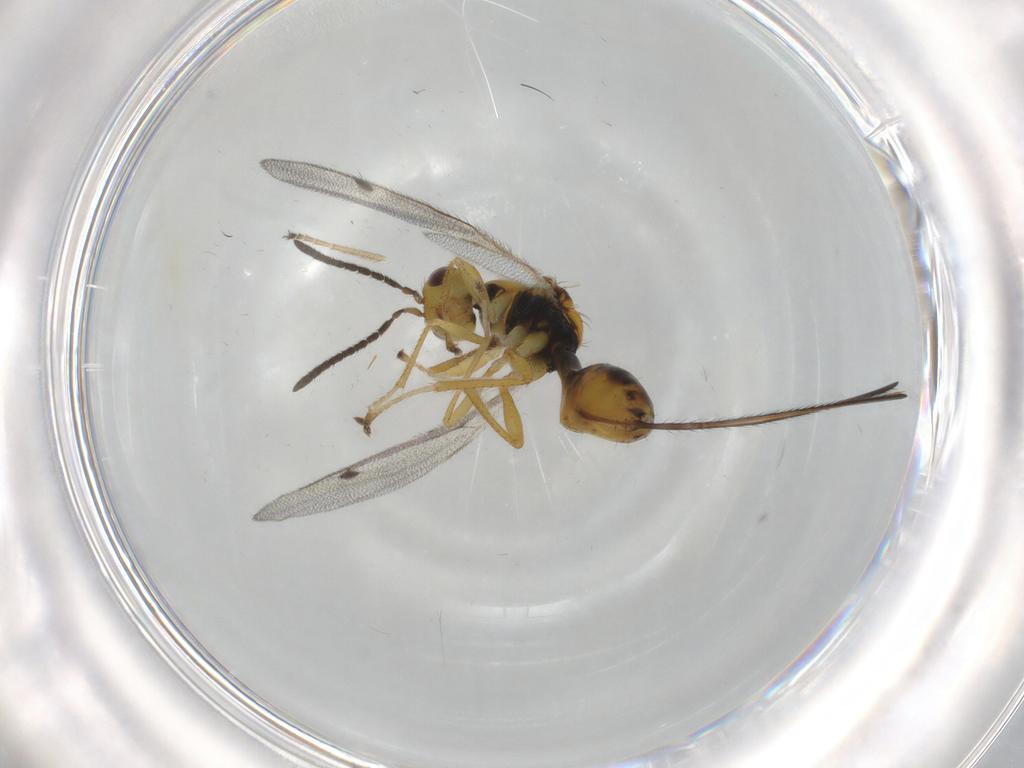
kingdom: Animalia
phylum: Arthropoda
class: Insecta
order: Hymenoptera
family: Megastigmidae
